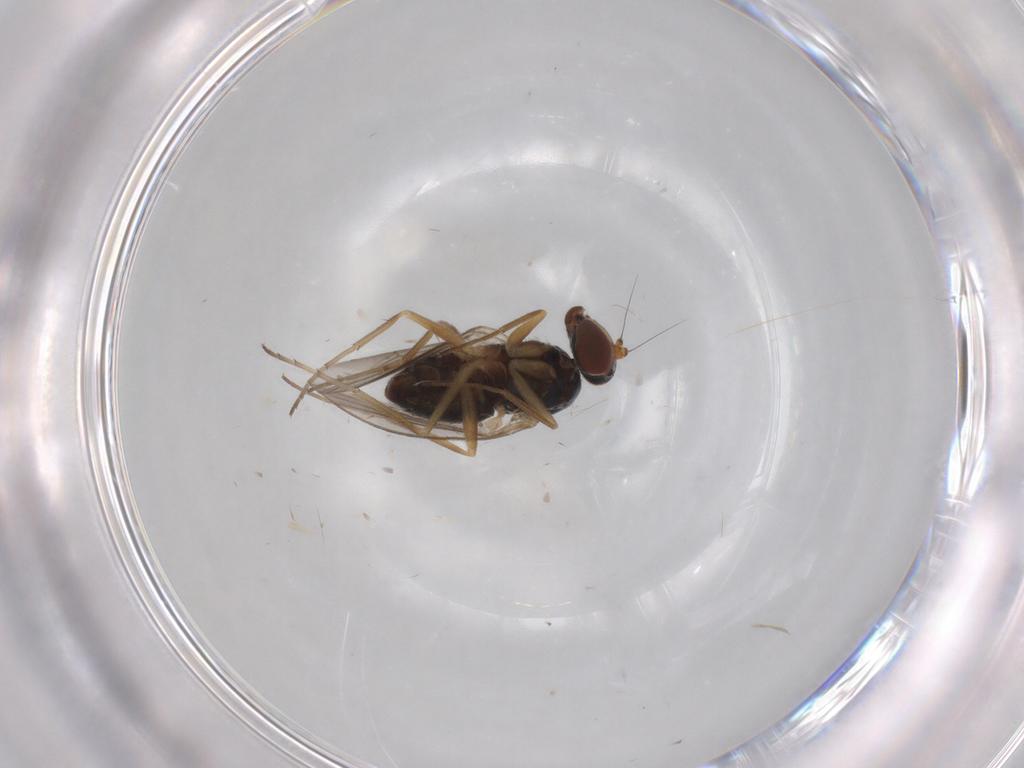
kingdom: Animalia
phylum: Arthropoda
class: Insecta
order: Diptera
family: Dolichopodidae
